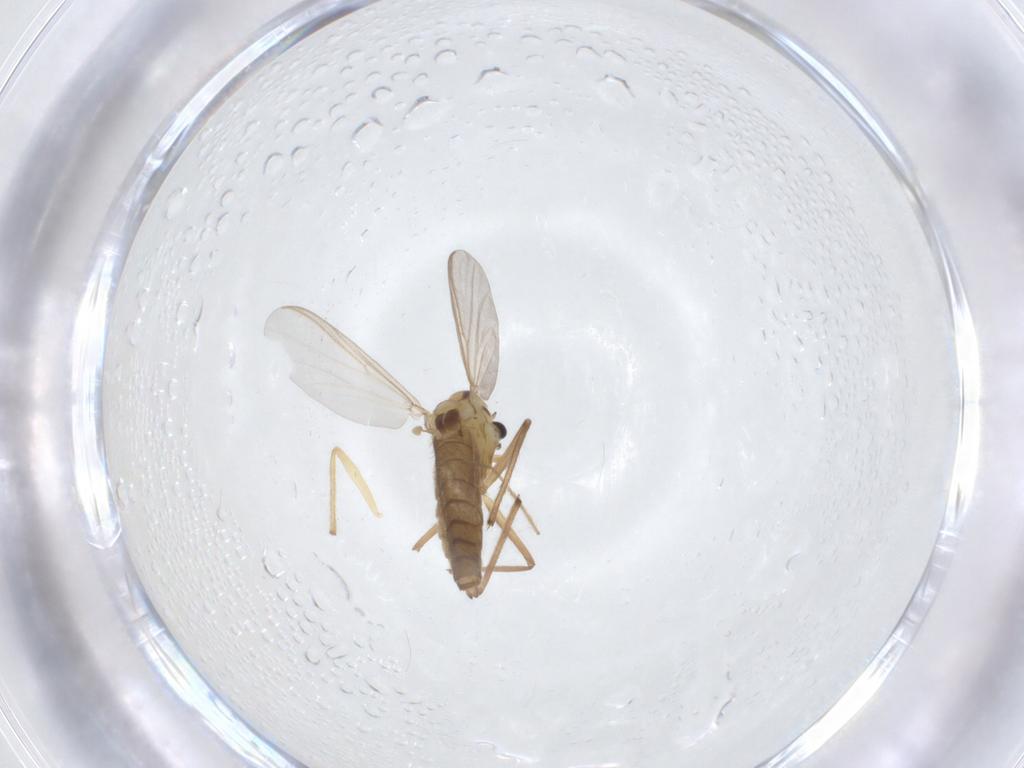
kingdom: Animalia
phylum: Arthropoda
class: Insecta
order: Diptera
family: Chironomidae
